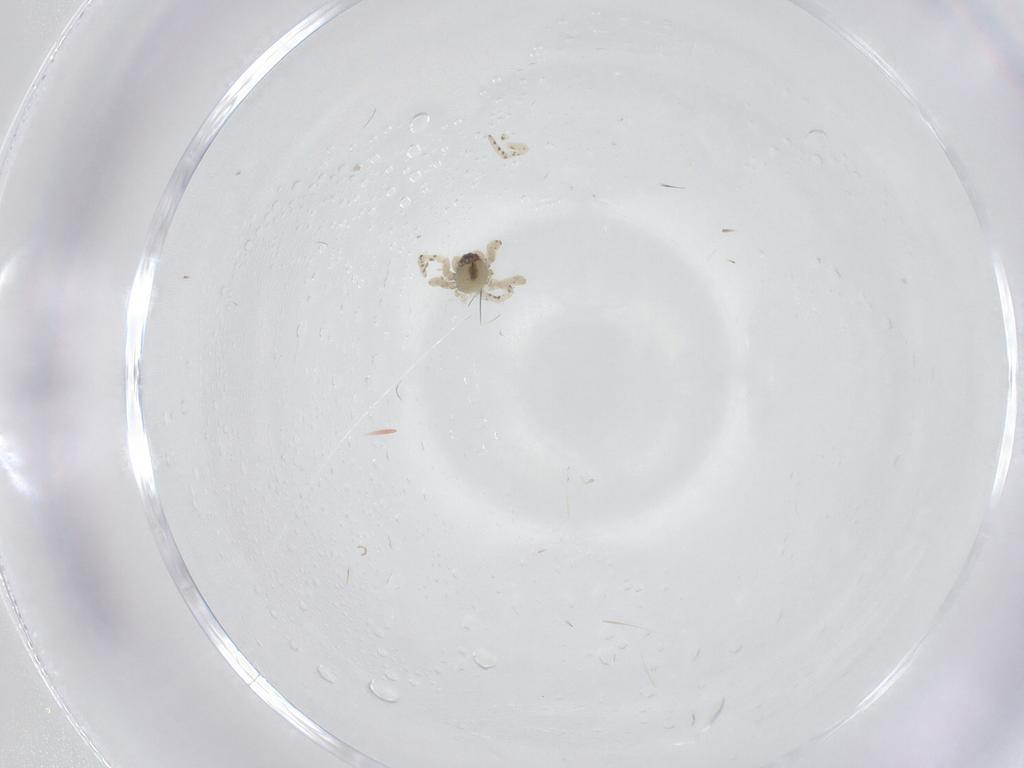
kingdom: Animalia
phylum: Arthropoda
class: Arachnida
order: Araneae
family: Theridiidae
